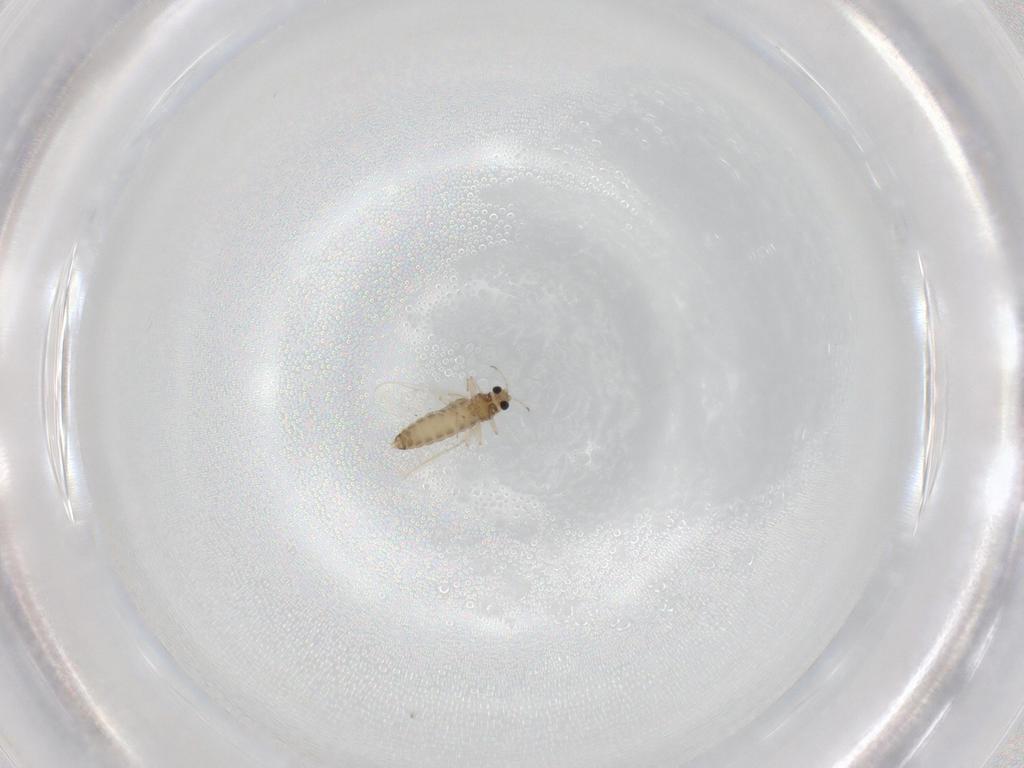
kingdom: Animalia
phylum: Arthropoda
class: Insecta
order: Diptera
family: Chironomidae
